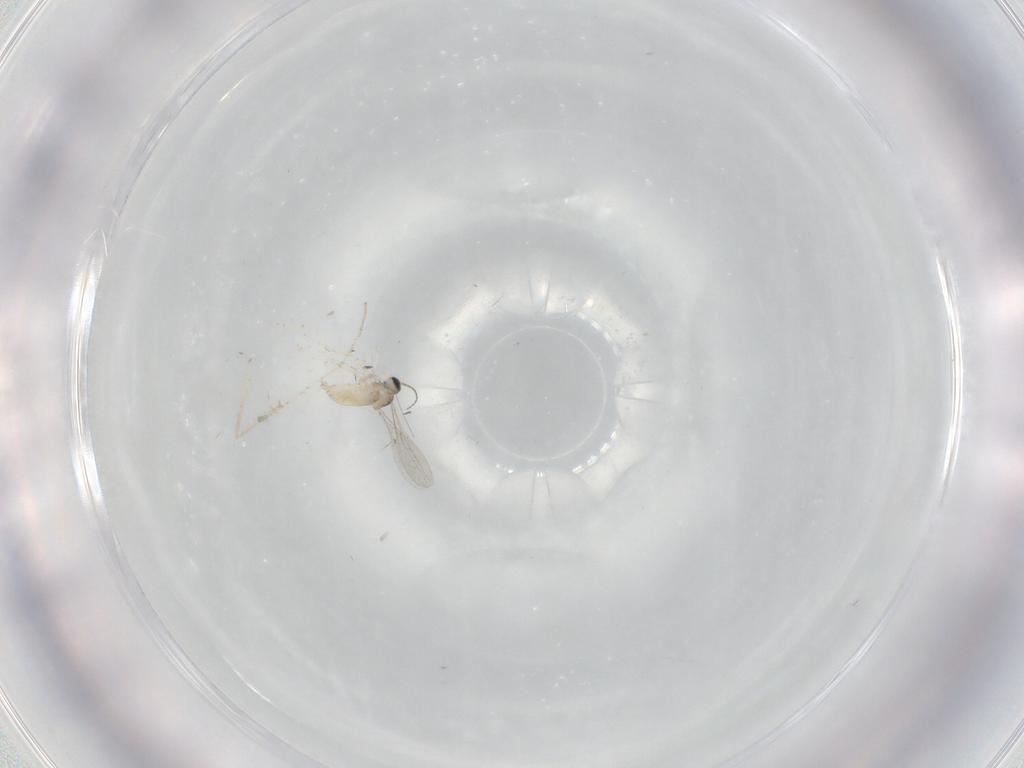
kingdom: Animalia
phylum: Arthropoda
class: Insecta
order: Diptera
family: Cecidomyiidae
